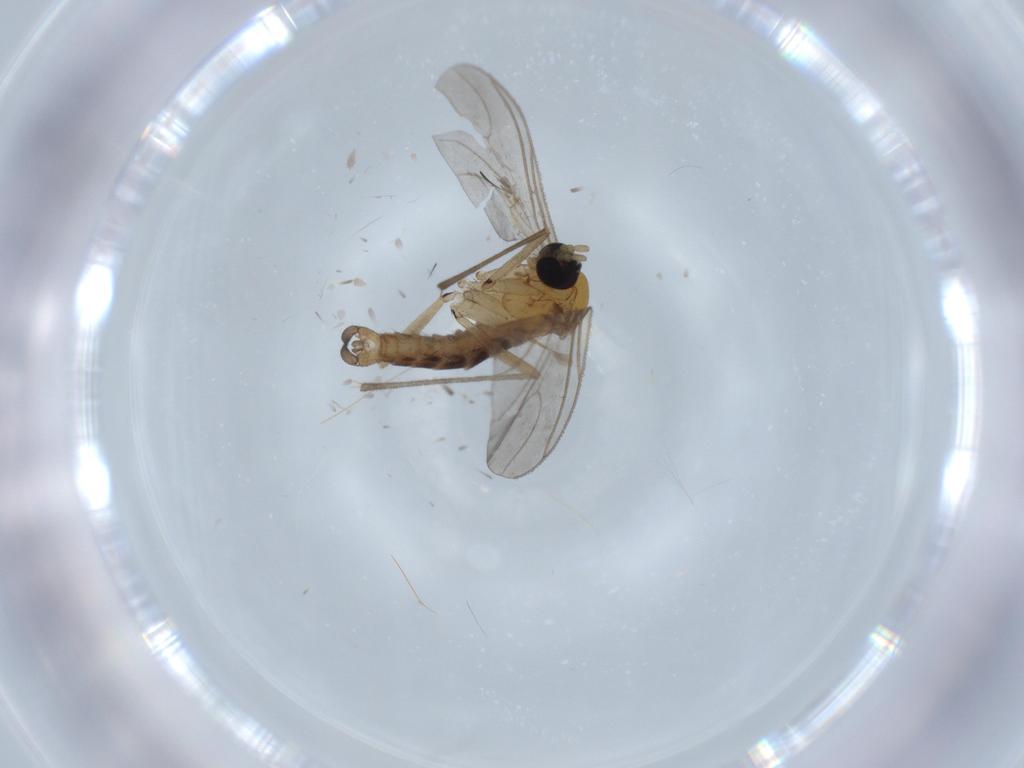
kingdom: Animalia
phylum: Arthropoda
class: Insecta
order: Diptera
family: Sciaridae
